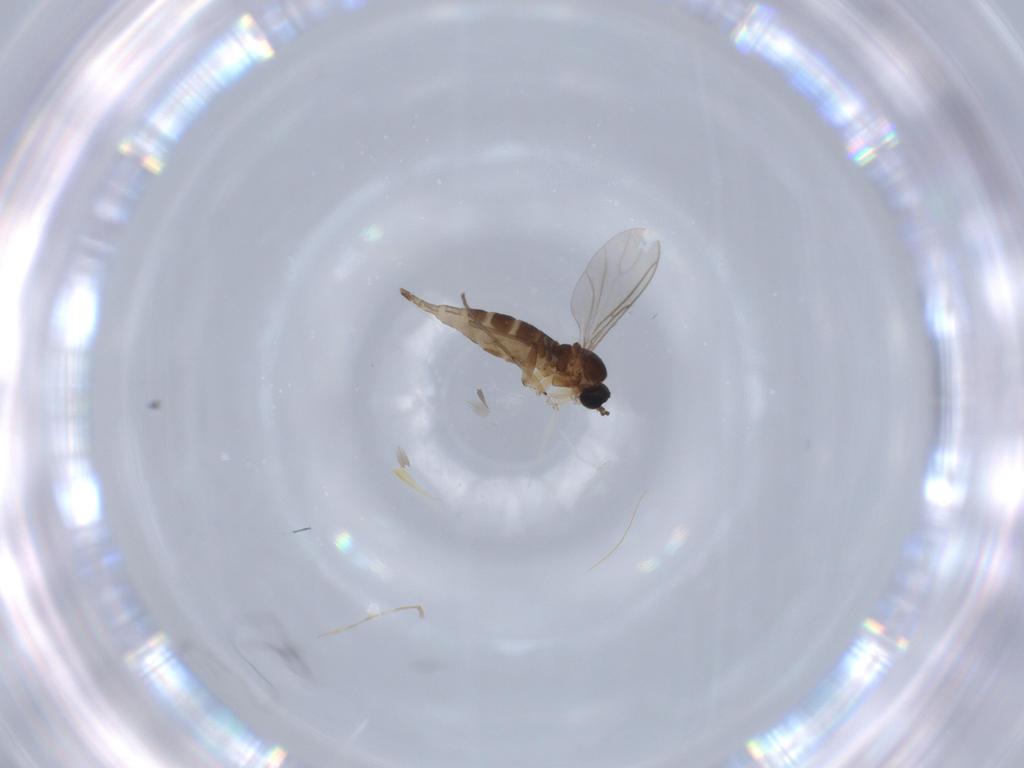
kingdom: Animalia
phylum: Arthropoda
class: Insecta
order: Diptera
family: Sciaridae
